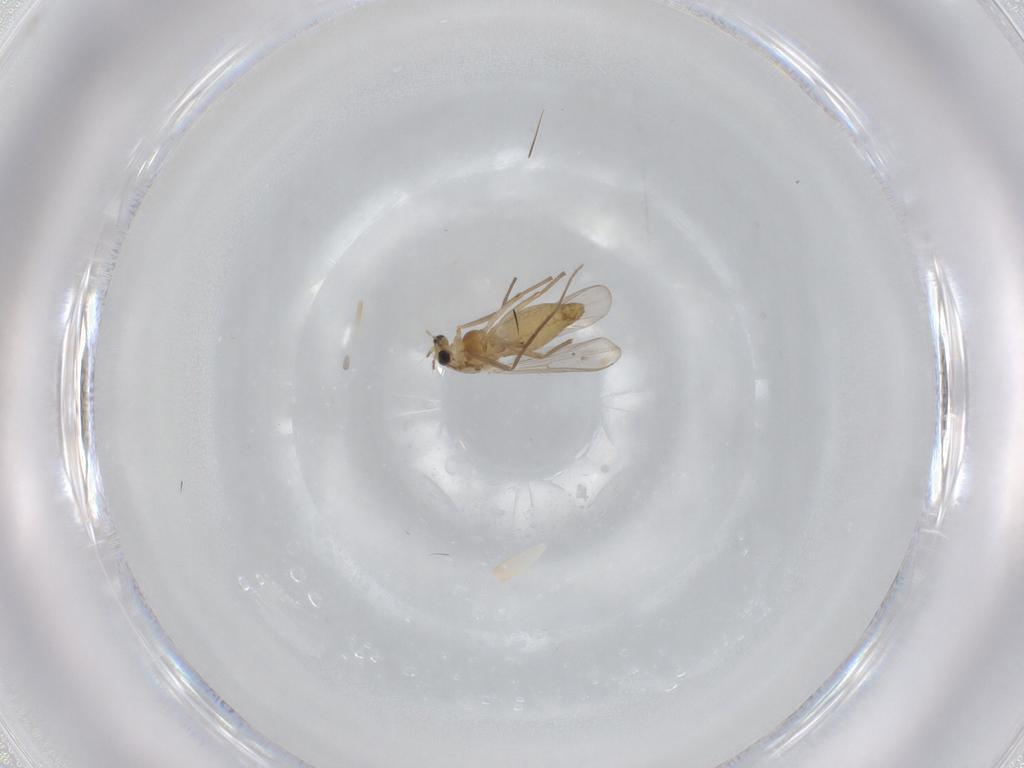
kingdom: Animalia
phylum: Arthropoda
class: Insecta
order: Diptera
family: Chironomidae
